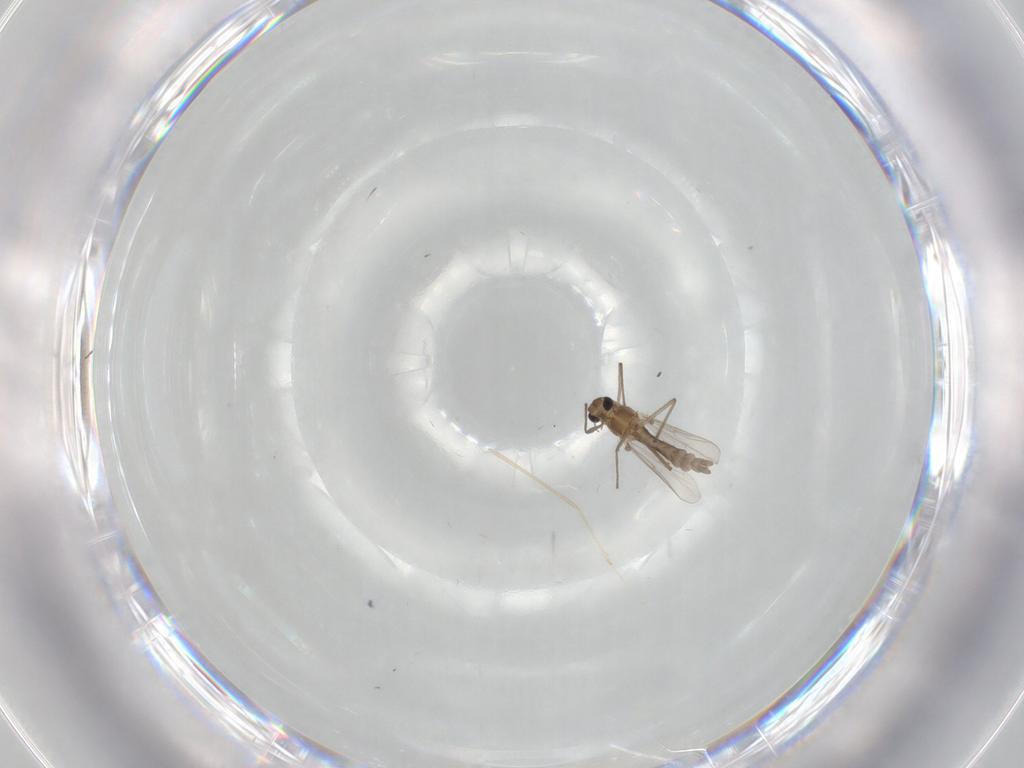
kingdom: Animalia
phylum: Arthropoda
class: Insecta
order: Diptera
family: Chironomidae
